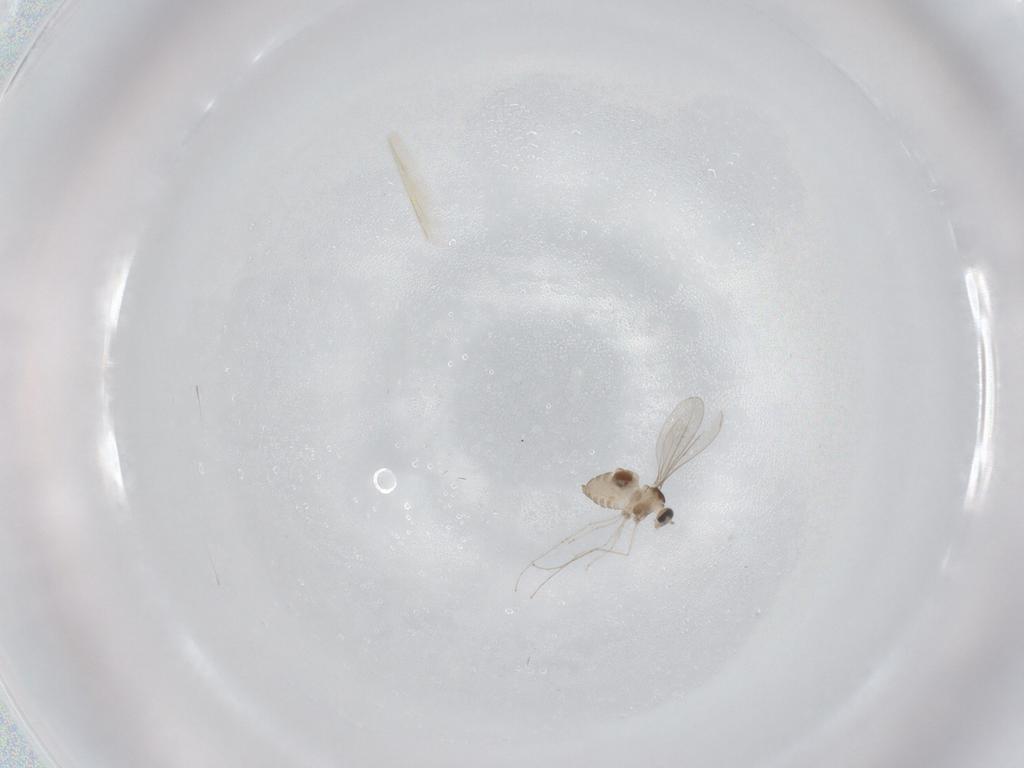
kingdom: Animalia
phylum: Arthropoda
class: Insecta
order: Diptera
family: Cecidomyiidae
